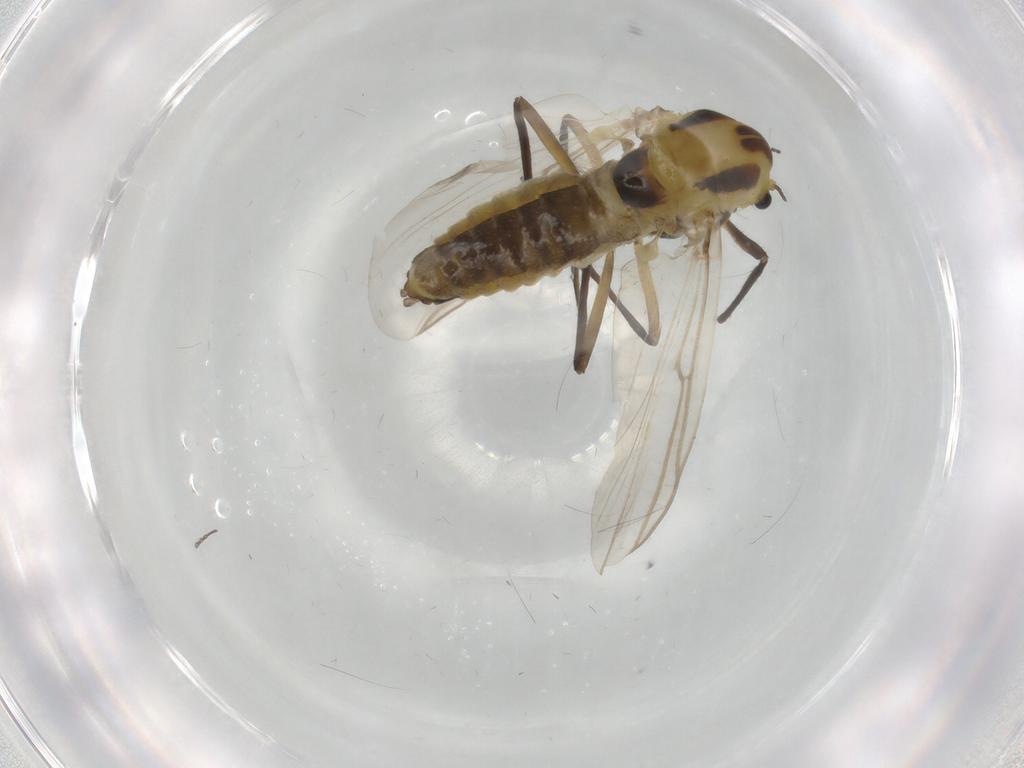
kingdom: Animalia
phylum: Arthropoda
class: Insecta
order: Diptera
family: Chironomidae
